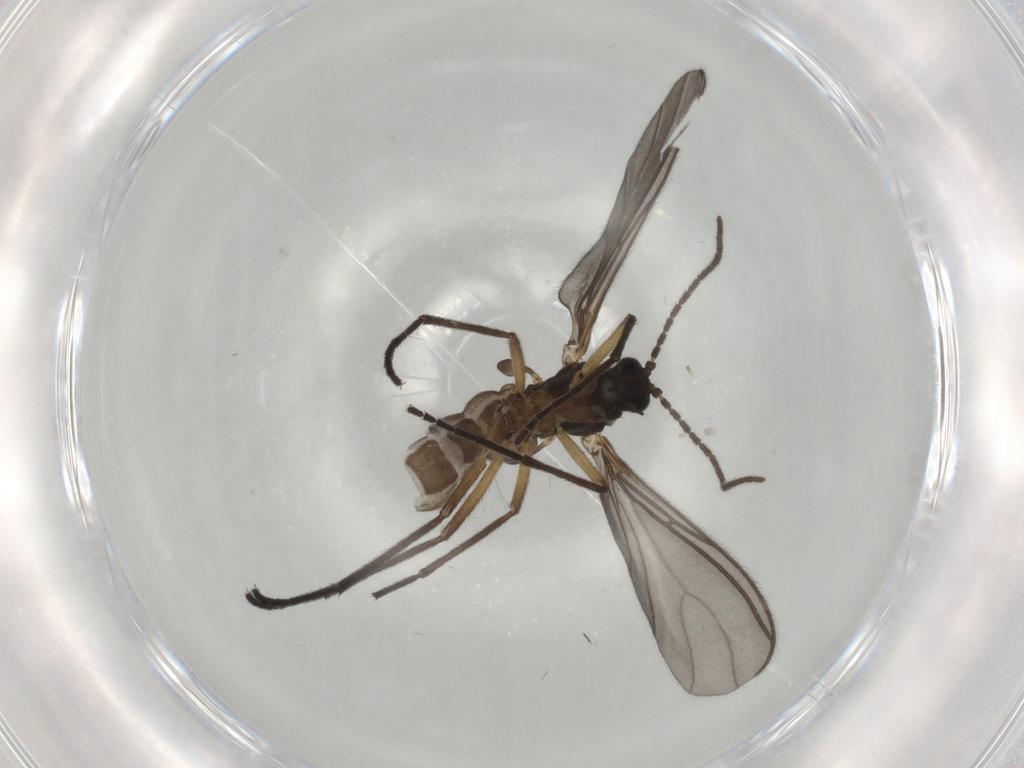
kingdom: Animalia
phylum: Arthropoda
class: Insecta
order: Diptera
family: Sciaridae
